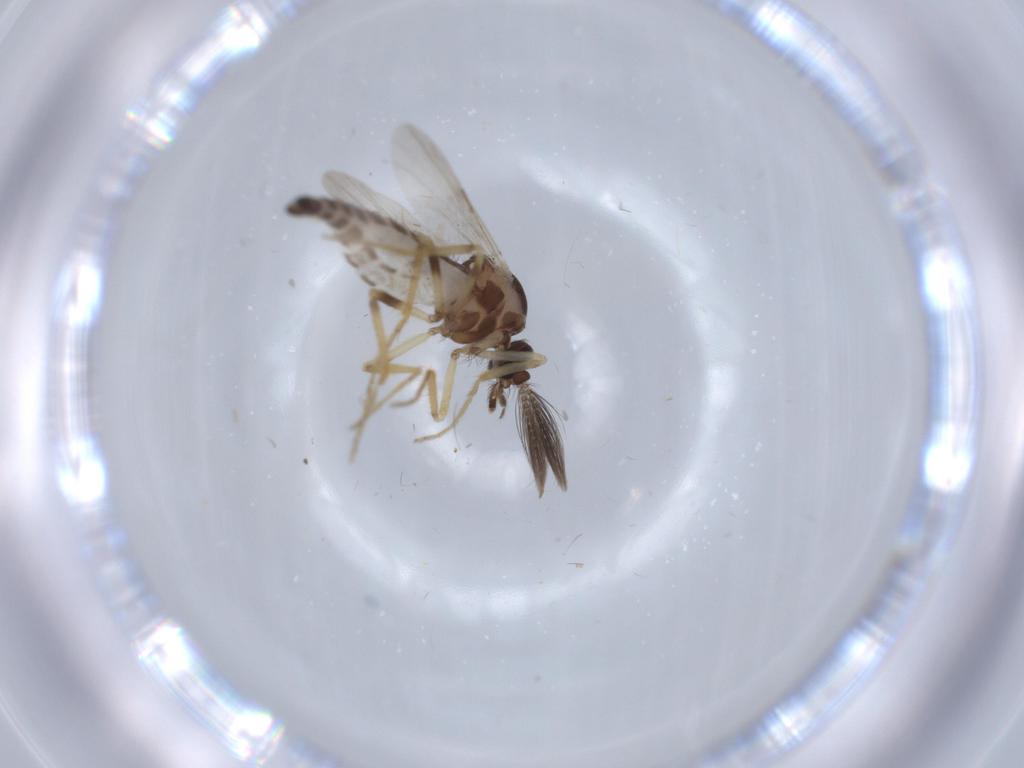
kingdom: Animalia
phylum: Arthropoda
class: Insecta
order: Diptera
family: Ceratopogonidae
